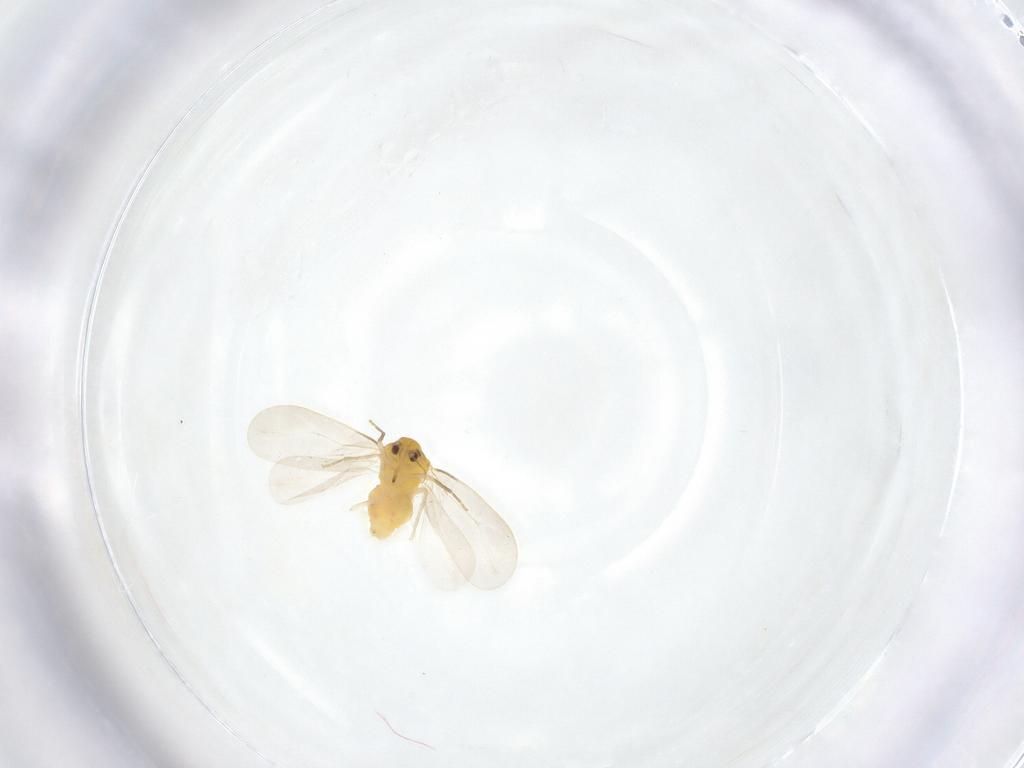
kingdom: Animalia
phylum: Arthropoda
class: Insecta
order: Hemiptera
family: Aleyrodidae
